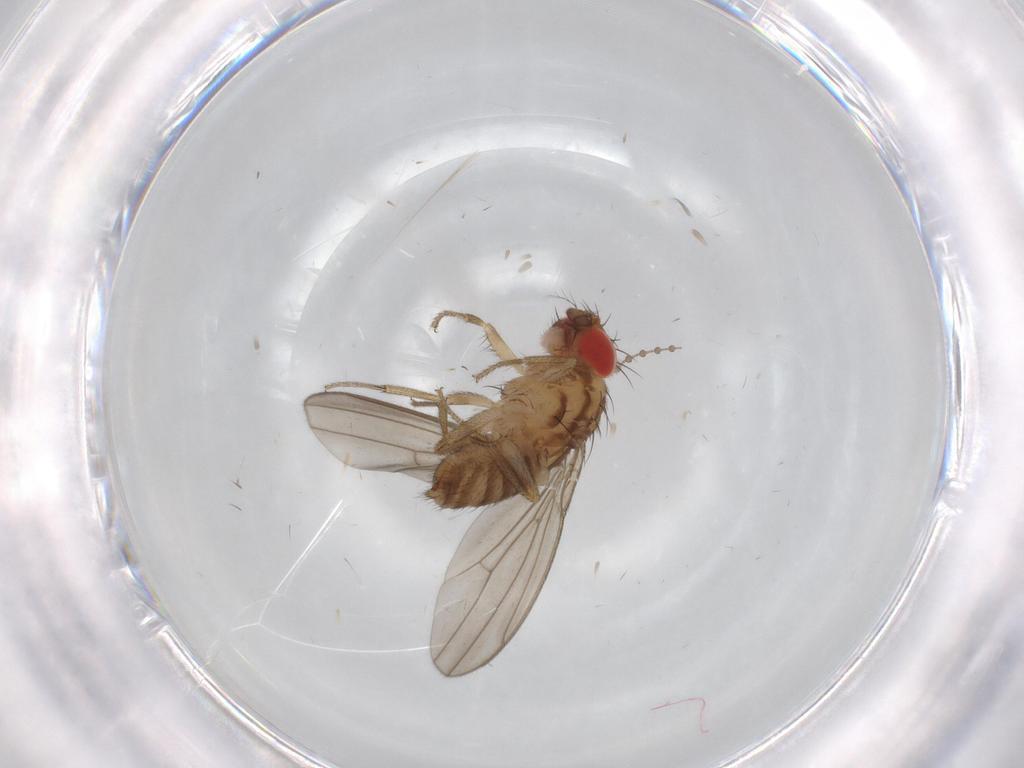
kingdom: Animalia
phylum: Arthropoda
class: Insecta
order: Diptera
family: Drosophilidae
